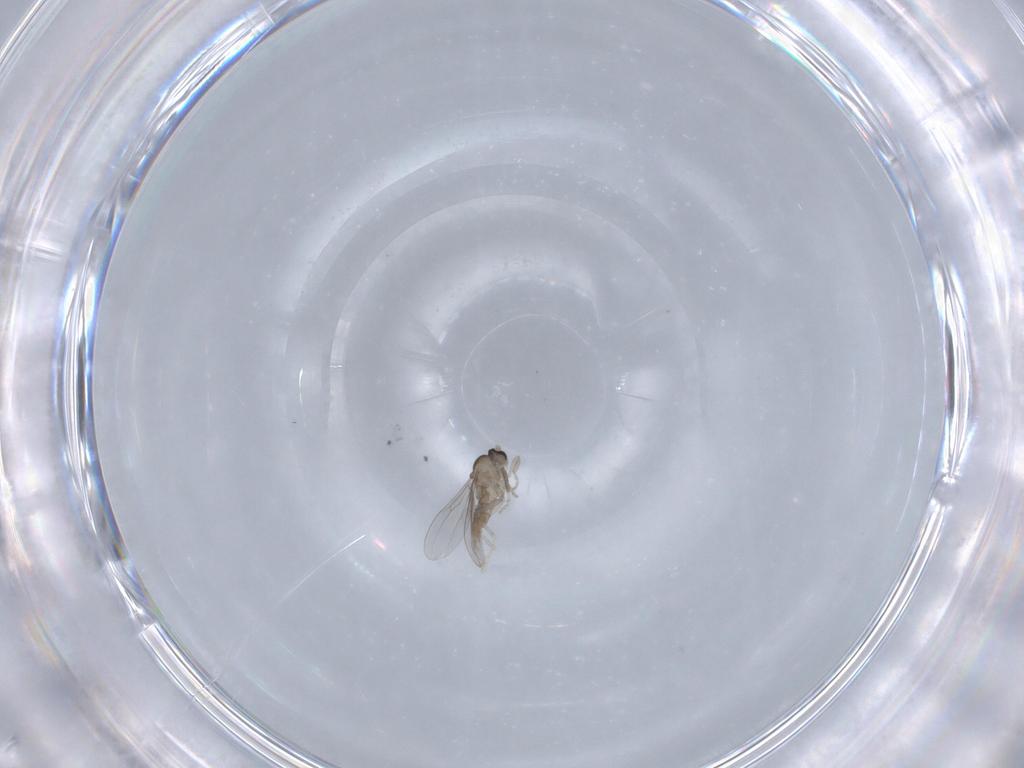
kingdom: Animalia
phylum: Arthropoda
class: Insecta
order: Diptera
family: Cecidomyiidae
